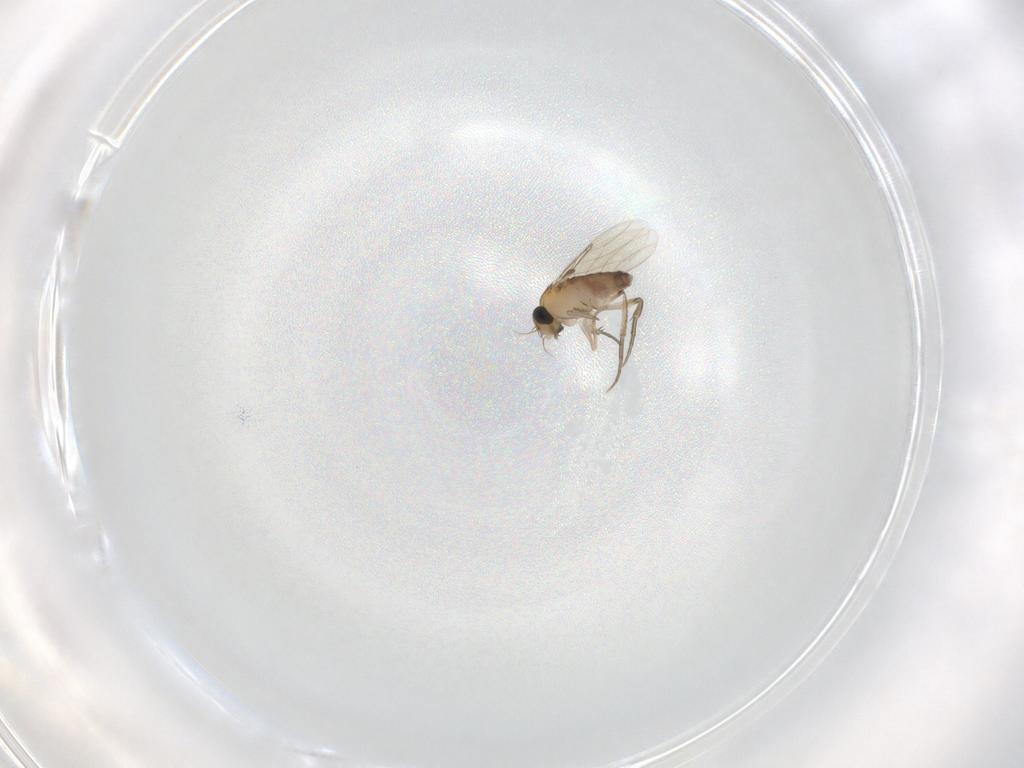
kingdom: Animalia
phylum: Arthropoda
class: Insecta
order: Diptera
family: Phoridae
